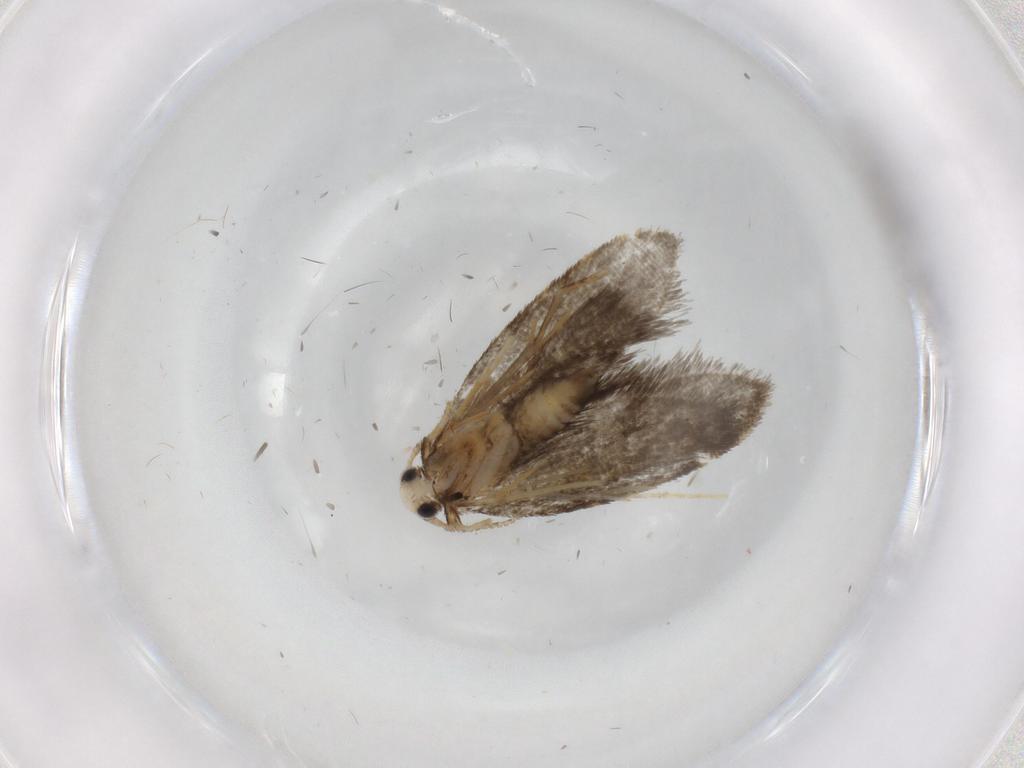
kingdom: Animalia
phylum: Arthropoda
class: Insecta
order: Lepidoptera
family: Psychidae
